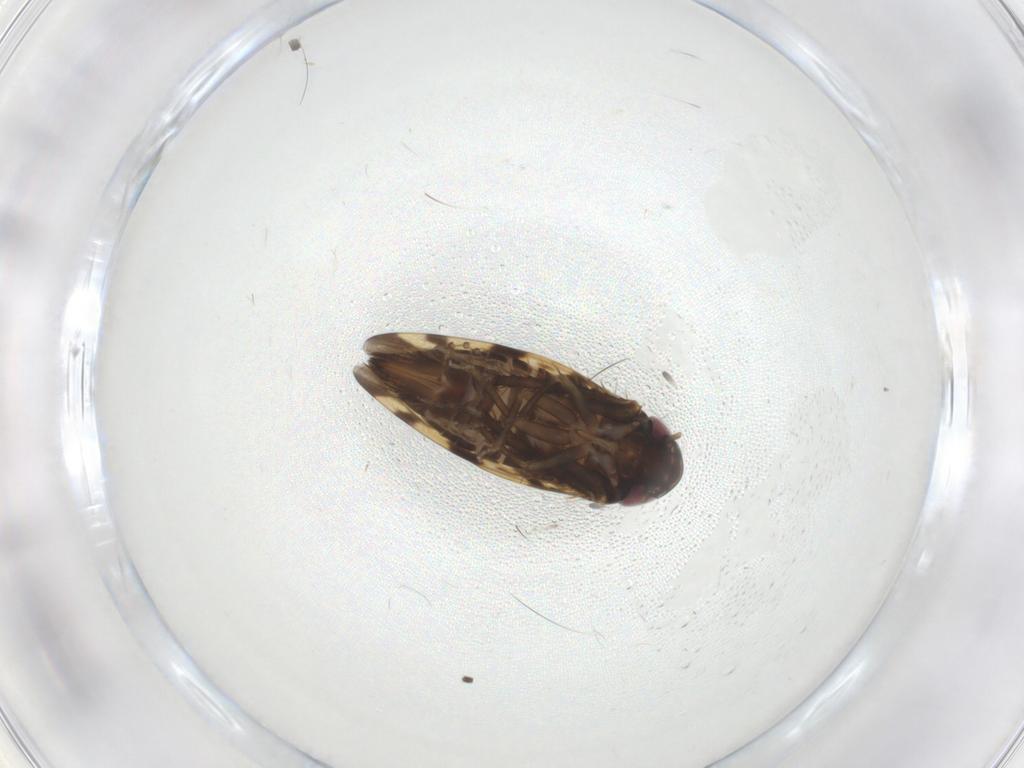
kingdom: Animalia
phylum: Arthropoda
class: Insecta
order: Hemiptera
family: Cicadellidae
